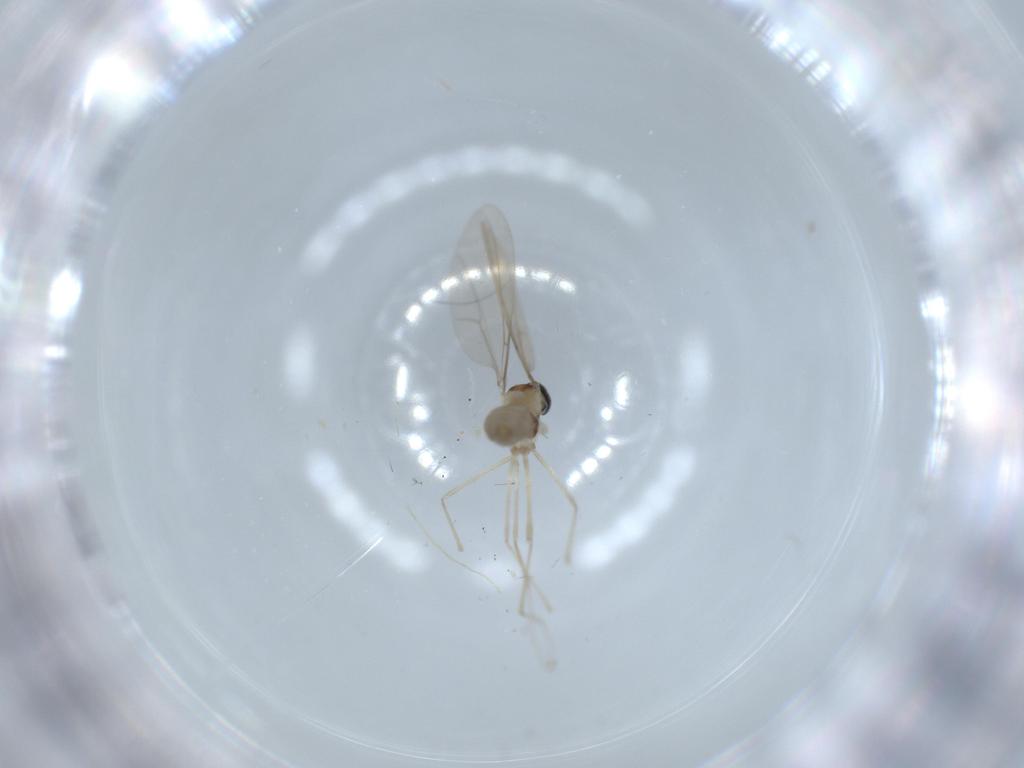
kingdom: Animalia
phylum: Arthropoda
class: Insecta
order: Diptera
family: Cecidomyiidae
